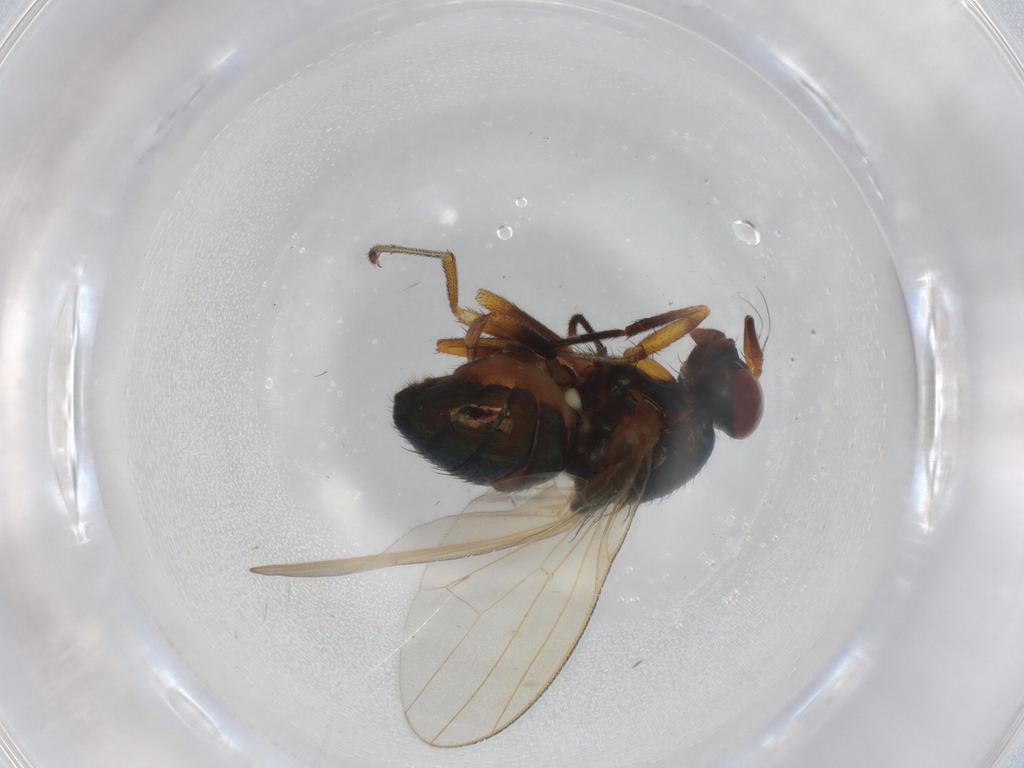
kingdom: Animalia
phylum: Arthropoda
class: Insecta
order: Diptera
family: Lauxaniidae
